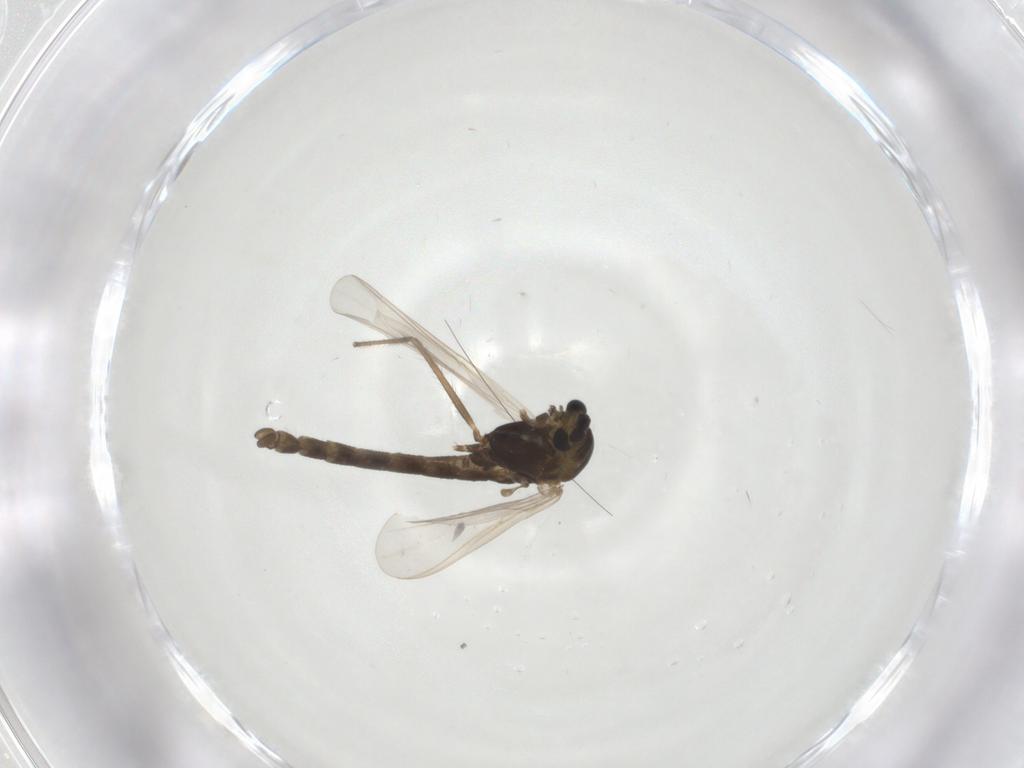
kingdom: Animalia
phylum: Arthropoda
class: Insecta
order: Diptera
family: Chironomidae
